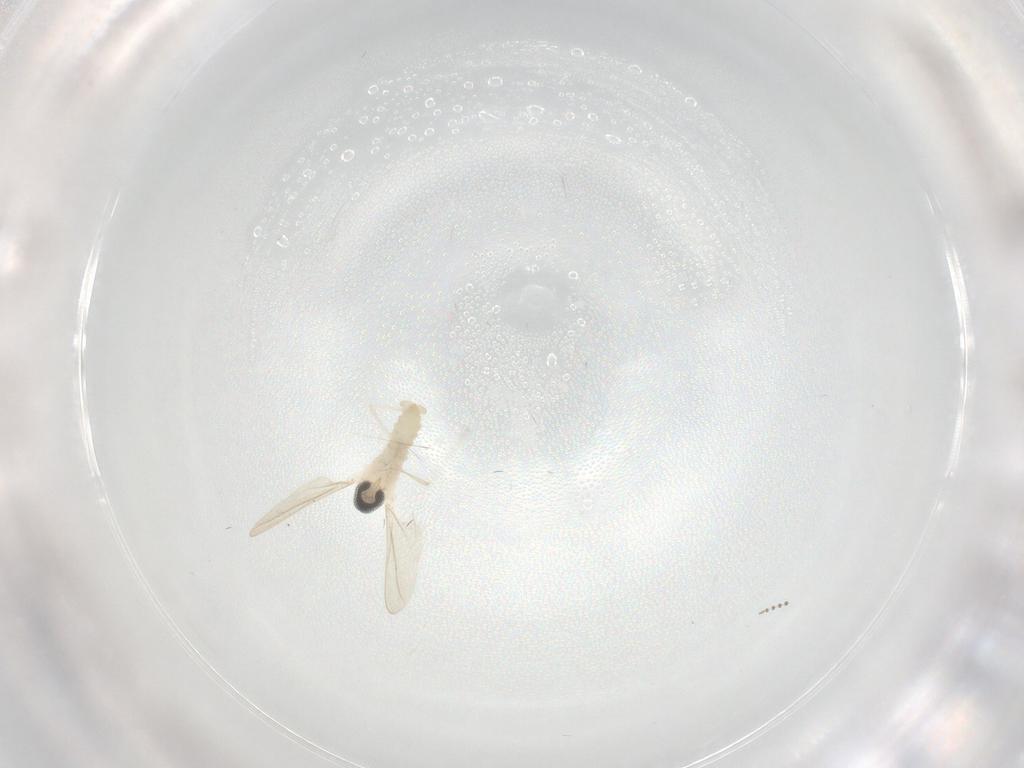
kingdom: Animalia
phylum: Arthropoda
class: Insecta
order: Diptera
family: Cecidomyiidae
